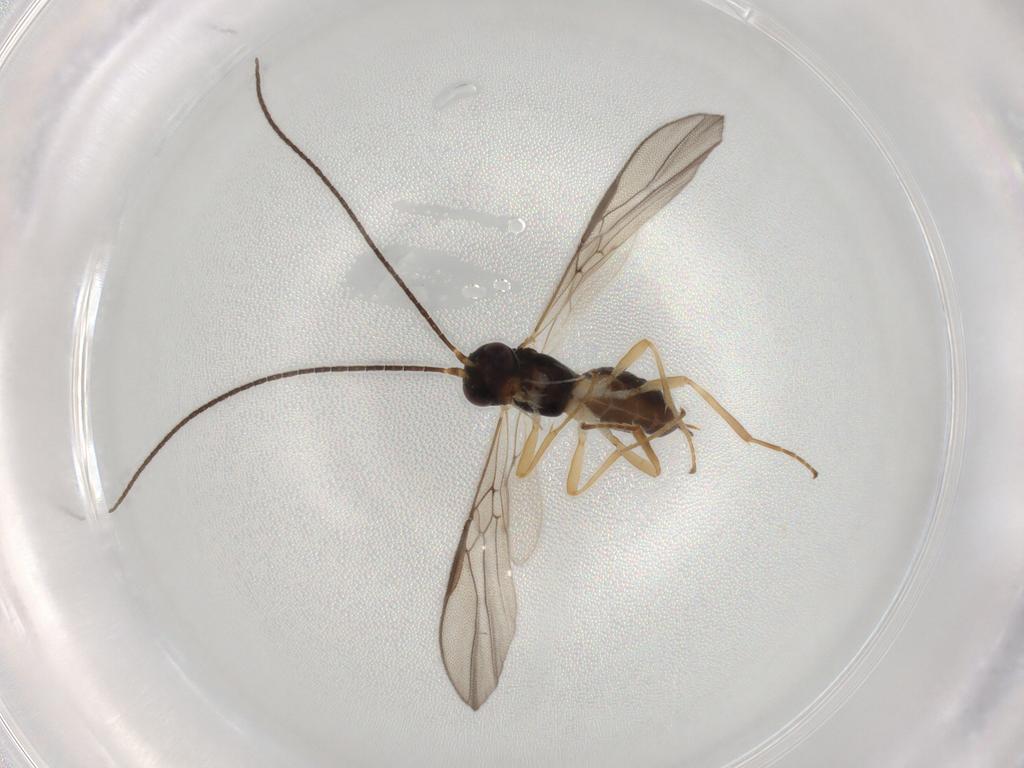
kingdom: Animalia
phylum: Arthropoda
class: Insecta
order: Hymenoptera
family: Braconidae
